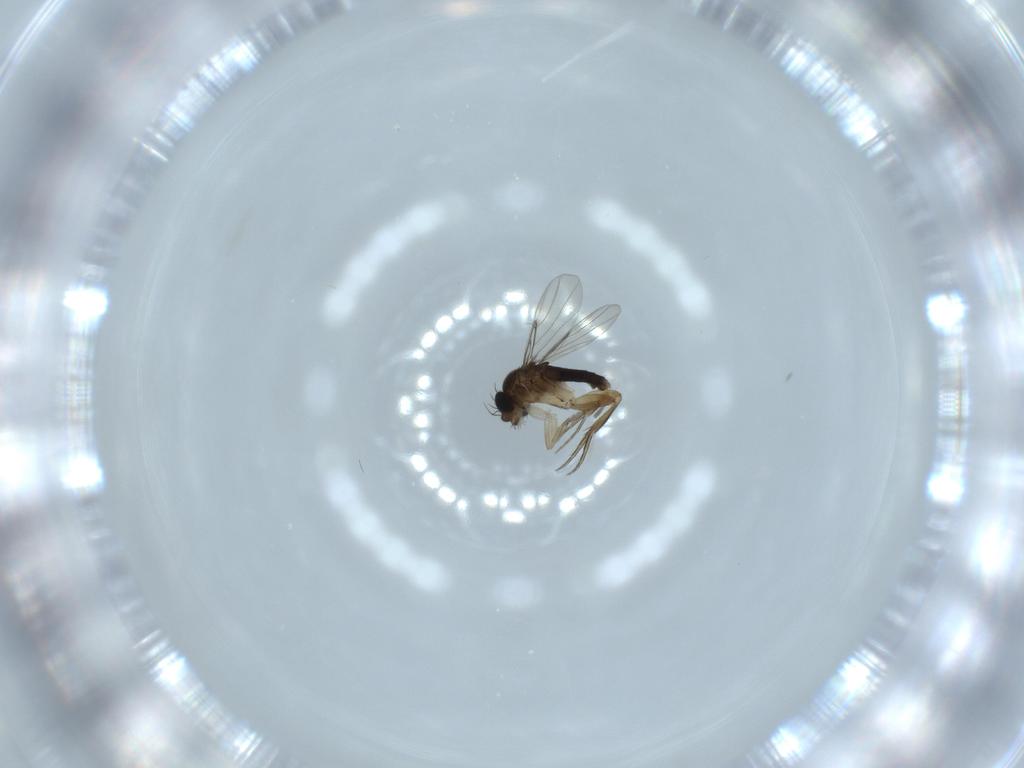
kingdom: Animalia
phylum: Arthropoda
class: Insecta
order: Diptera
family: Phoridae
